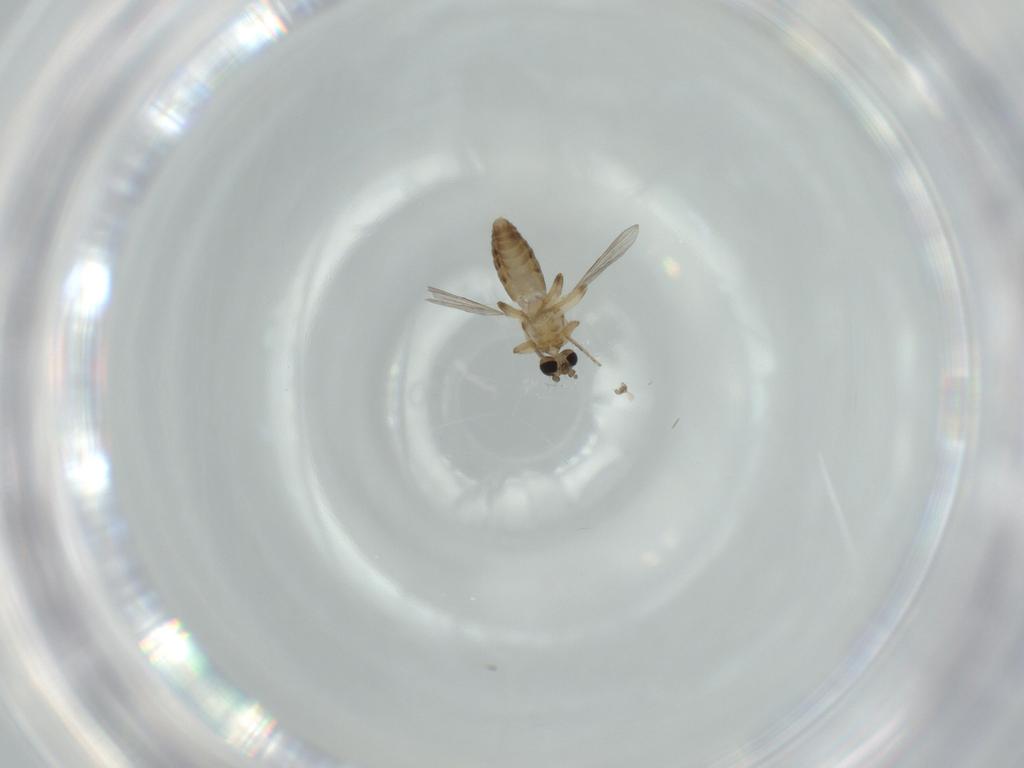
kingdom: Animalia
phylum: Arthropoda
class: Insecta
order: Diptera
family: Ceratopogonidae
